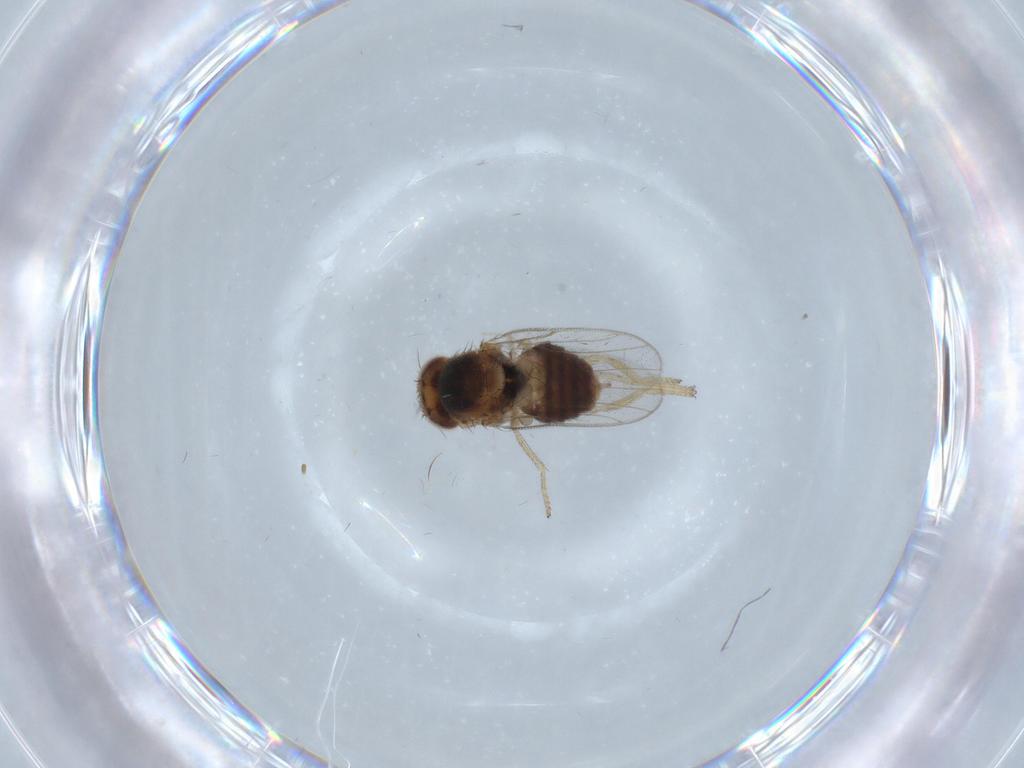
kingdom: Animalia
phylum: Arthropoda
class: Insecta
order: Diptera
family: Chloropidae
